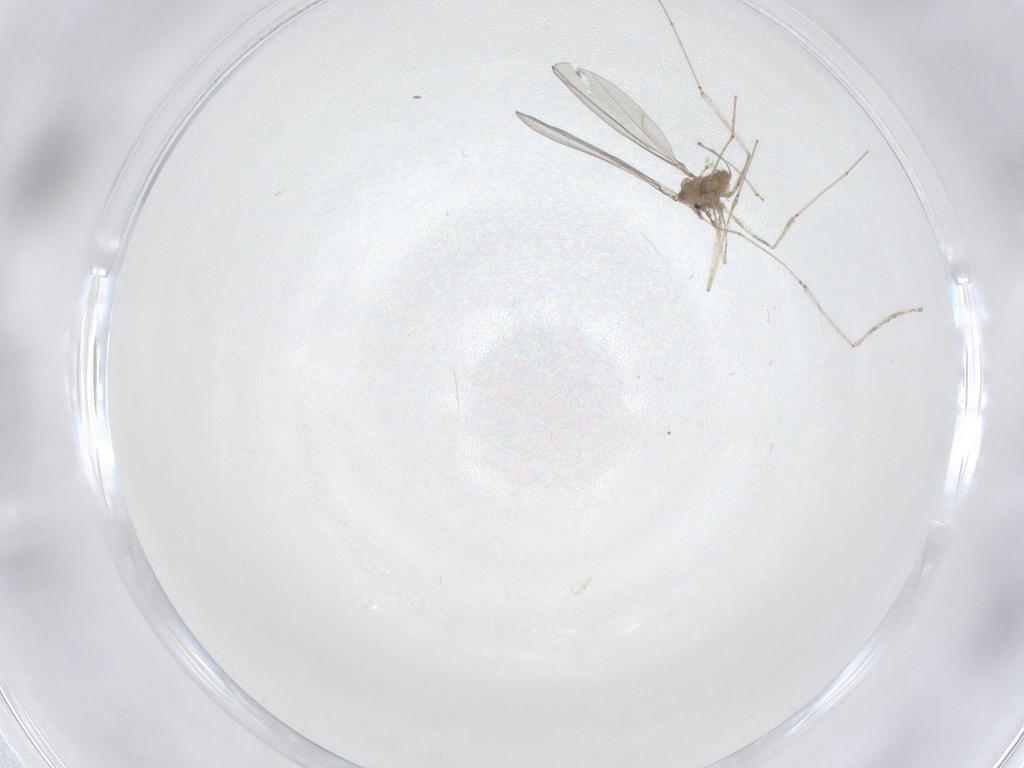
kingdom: Animalia
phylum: Arthropoda
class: Insecta
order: Diptera
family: Cecidomyiidae
